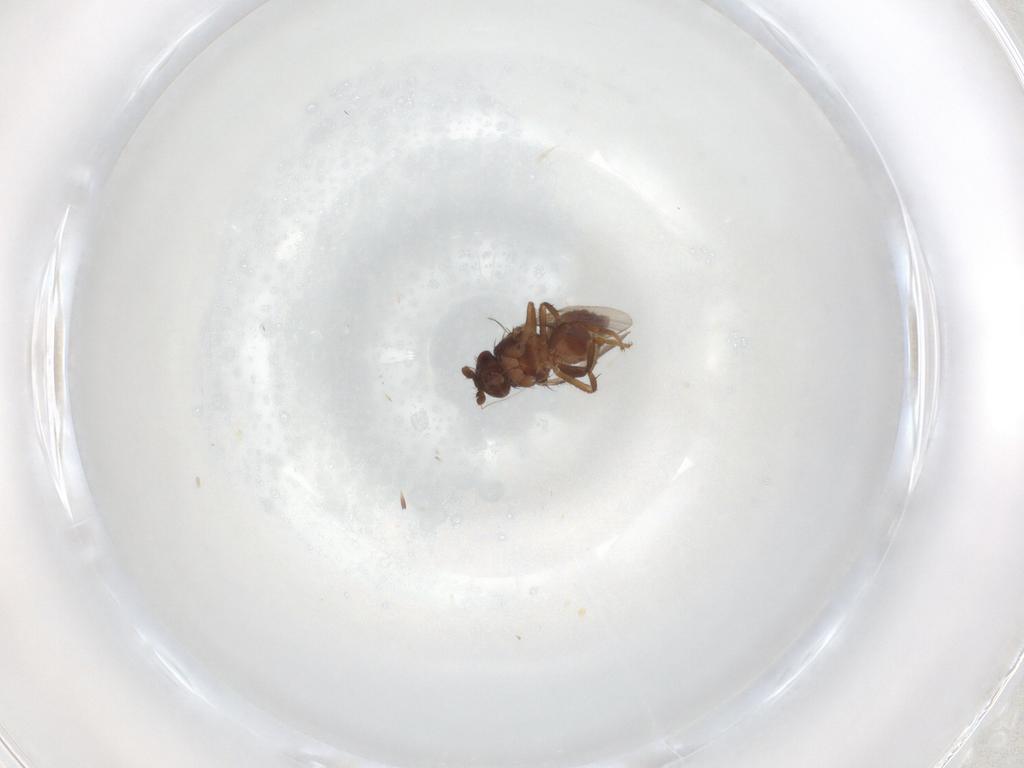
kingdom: Animalia
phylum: Arthropoda
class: Insecta
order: Diptera
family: Cecidomyiidae
